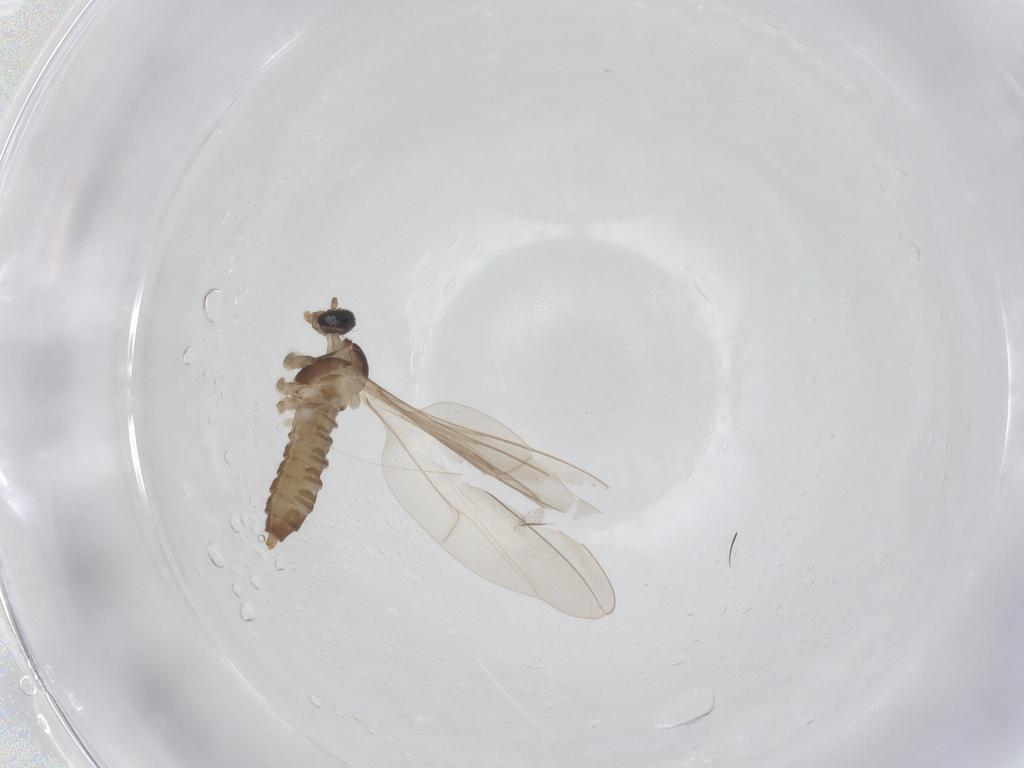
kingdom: Animalia
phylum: Arthropoda
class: Insecta
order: Diptera
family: Cecidomyiidae
